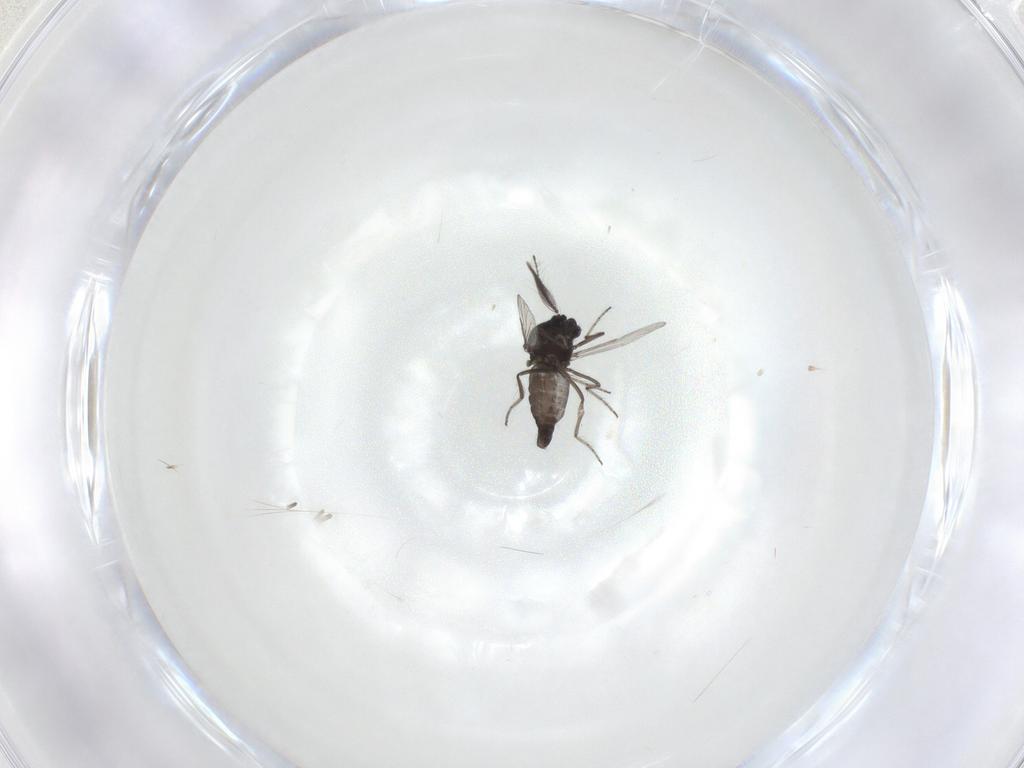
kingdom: Animalia
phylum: Arthropoda
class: Insecta
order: Diptera
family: Ceratopogonidae
